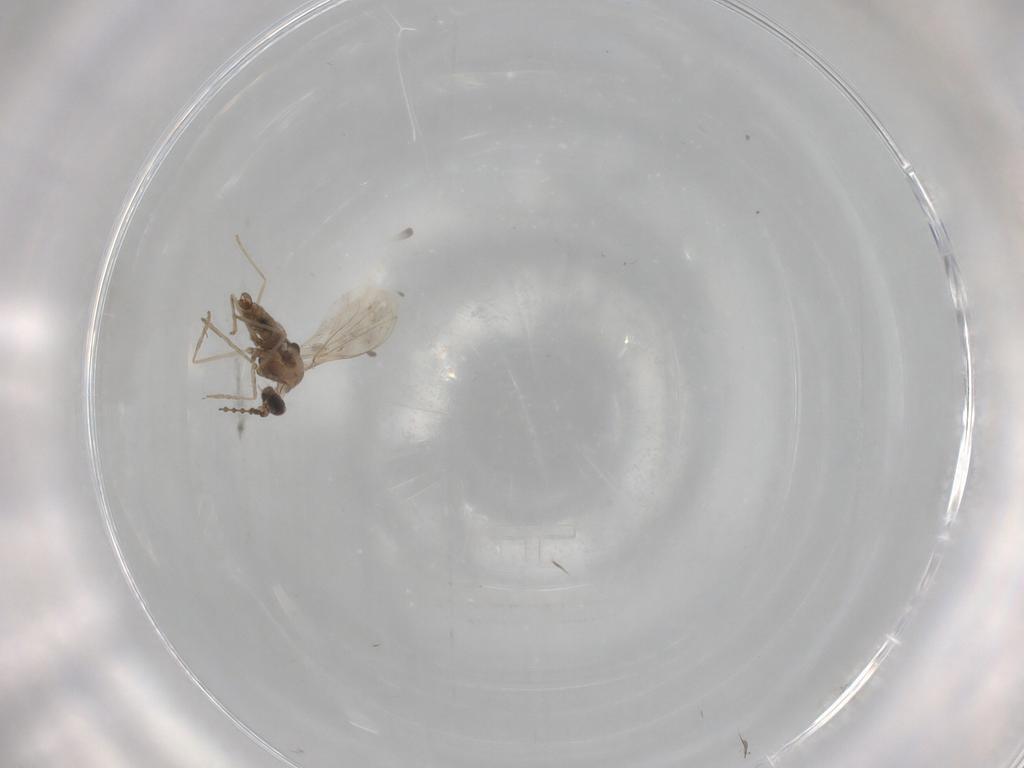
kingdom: Animalia
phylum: Arthropoda
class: Insecta
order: Diptera
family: Chironomidae
